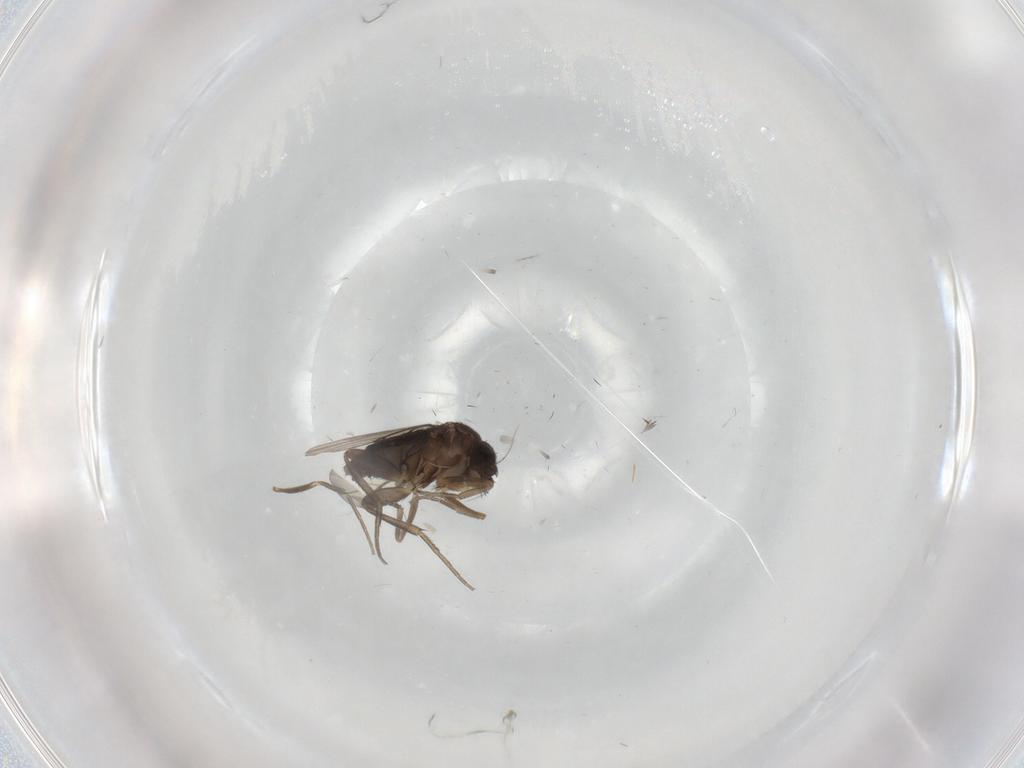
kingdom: Animalia
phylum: Arthropoda
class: Insecta
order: Diptera
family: Phoridae
